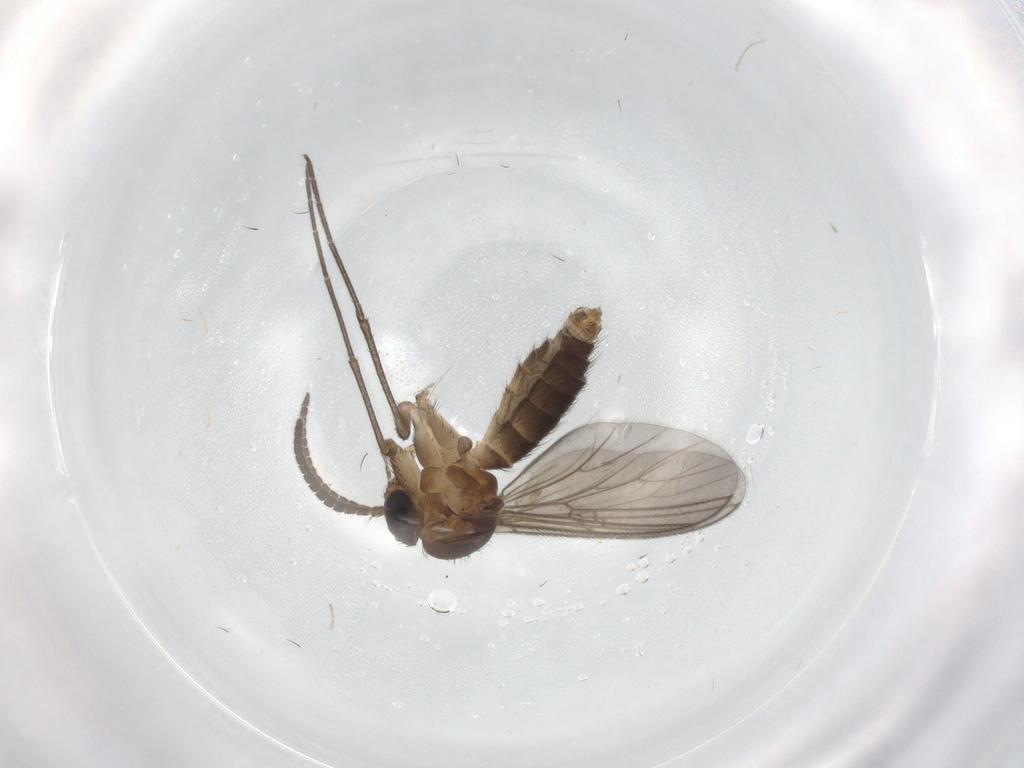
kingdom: Animalia
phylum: Arthropoda
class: Insecta
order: Diptera
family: Mycetophilidae
